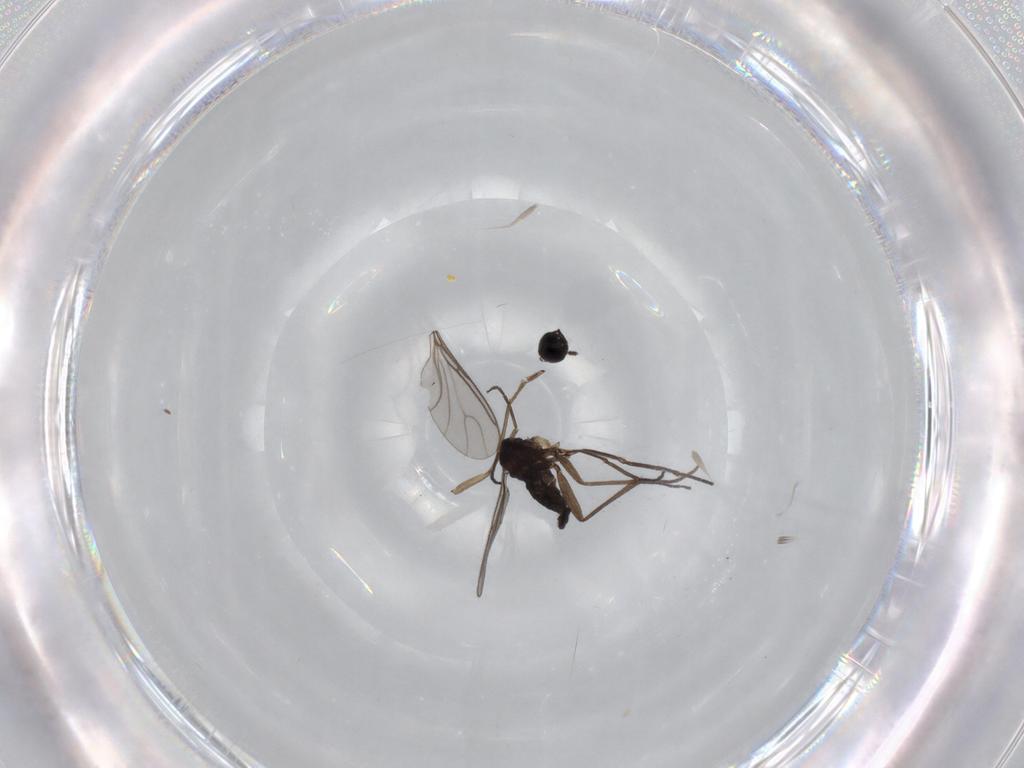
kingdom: Animalia
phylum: Arthropoda
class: Insecta
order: Diptera
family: Sciaridae
